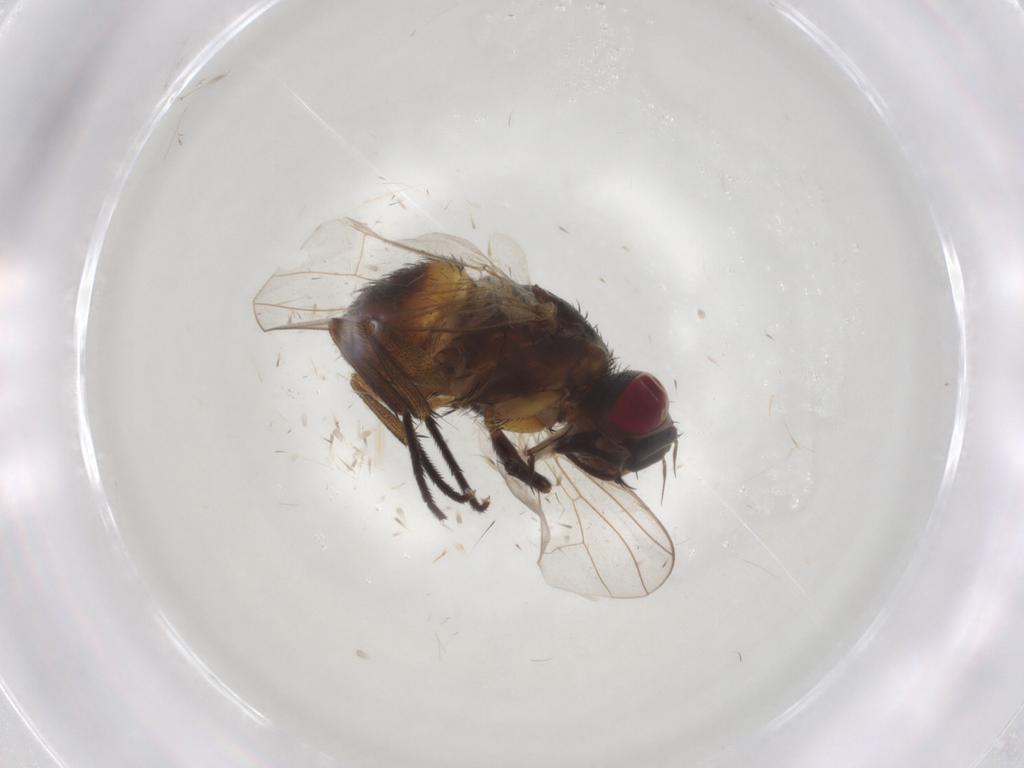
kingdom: Animalia
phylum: Arthropoda
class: Insecta
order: Diptera
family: Muscidae
